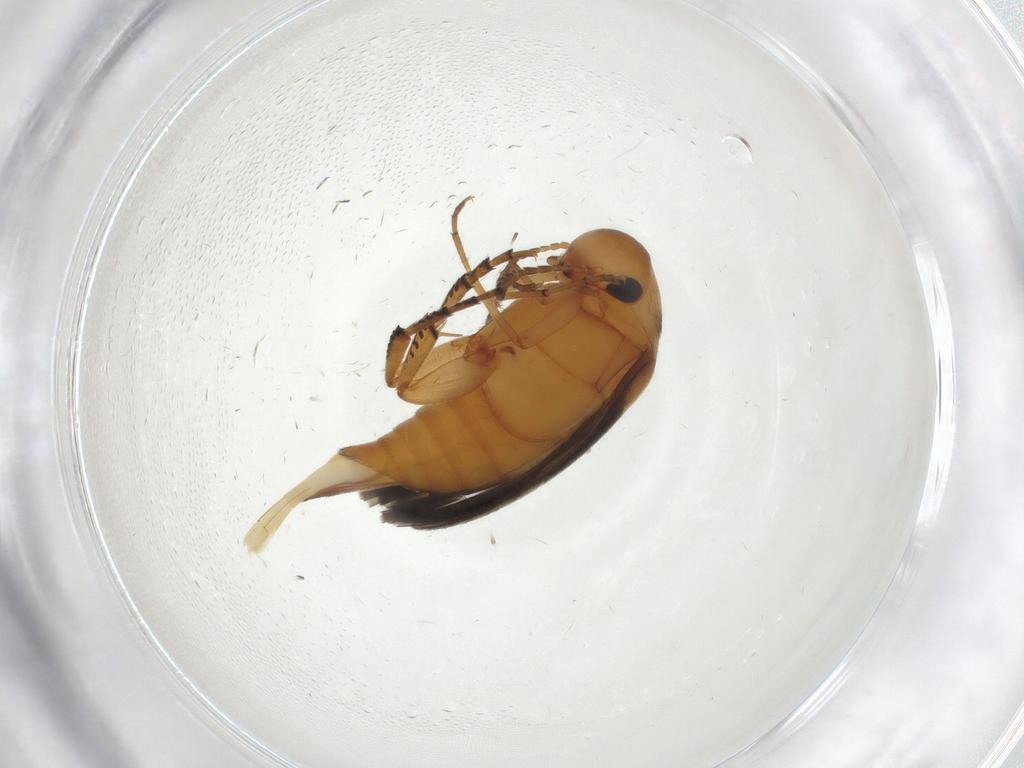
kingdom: Animalia
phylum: Arthropoda
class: Insecta
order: Coleoptera
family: Mordellidae
